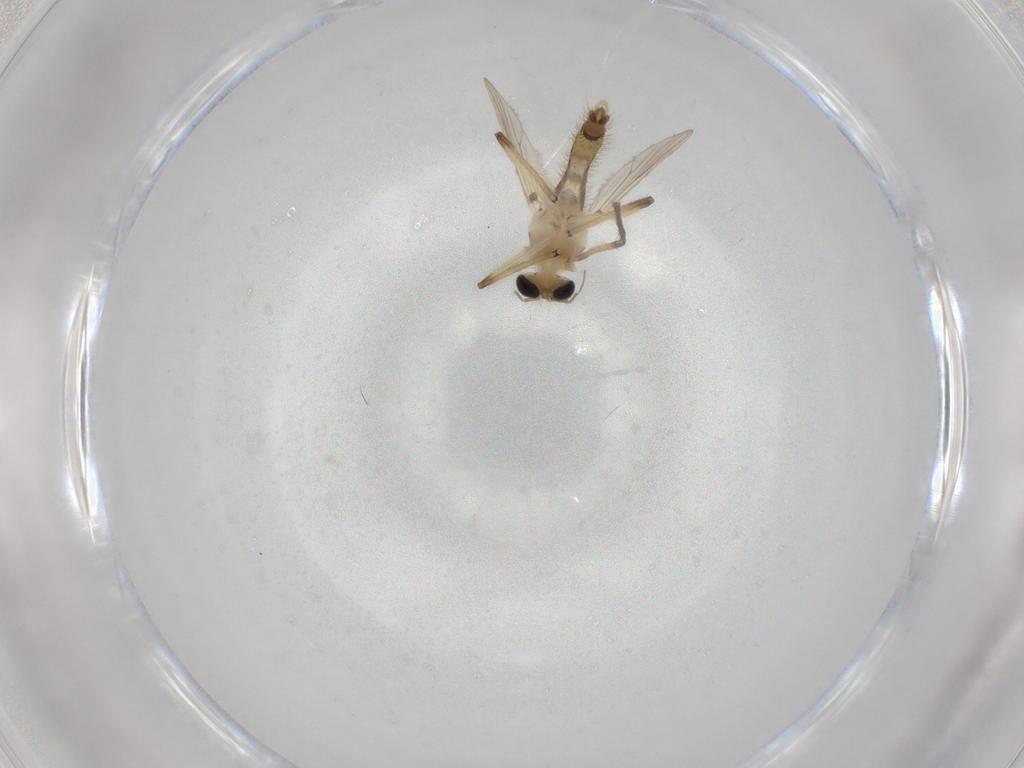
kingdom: Animalia
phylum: Arthropoda
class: Insecta
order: Diptera
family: Chironomidae
